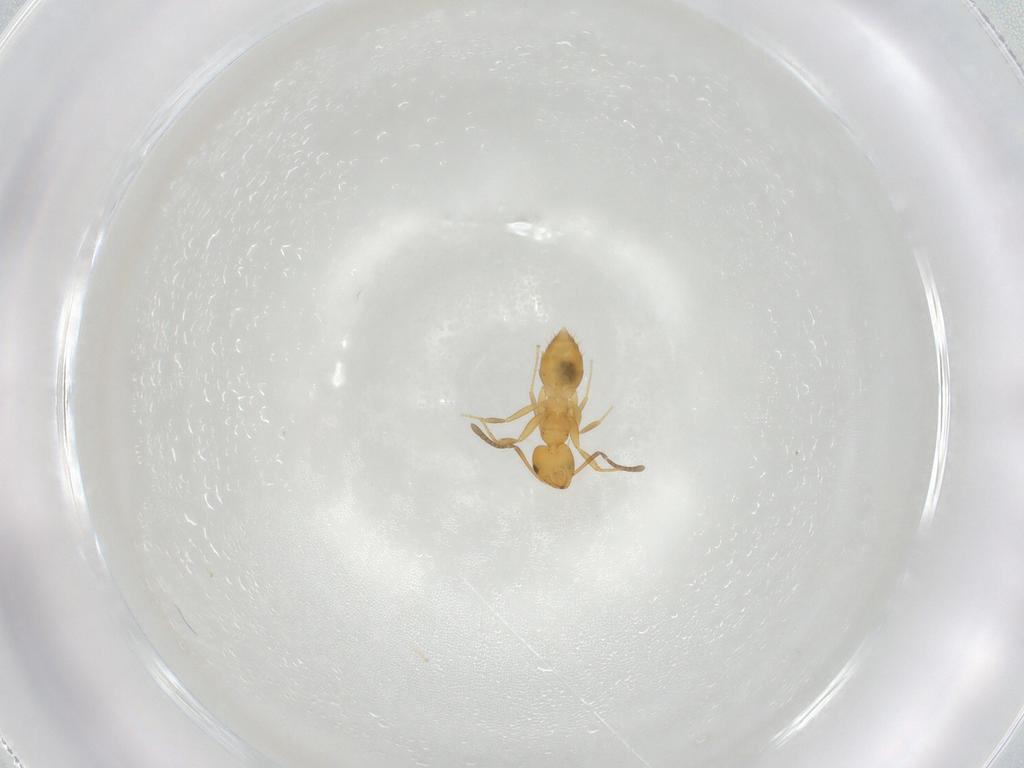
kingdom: Animalia
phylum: Arthropoda
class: Insecta
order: Hymenoptera
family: Formicidae
